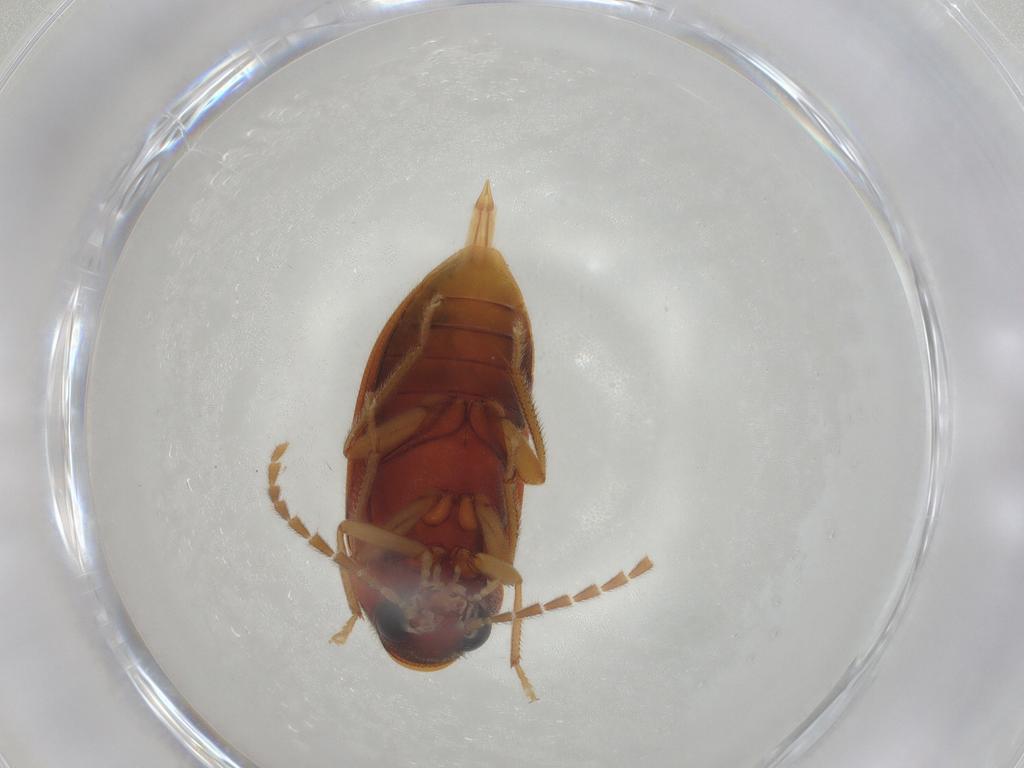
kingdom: Animalia
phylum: Arthropoda
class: Insecta
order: Coleoptera
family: Ptilodactylidae
